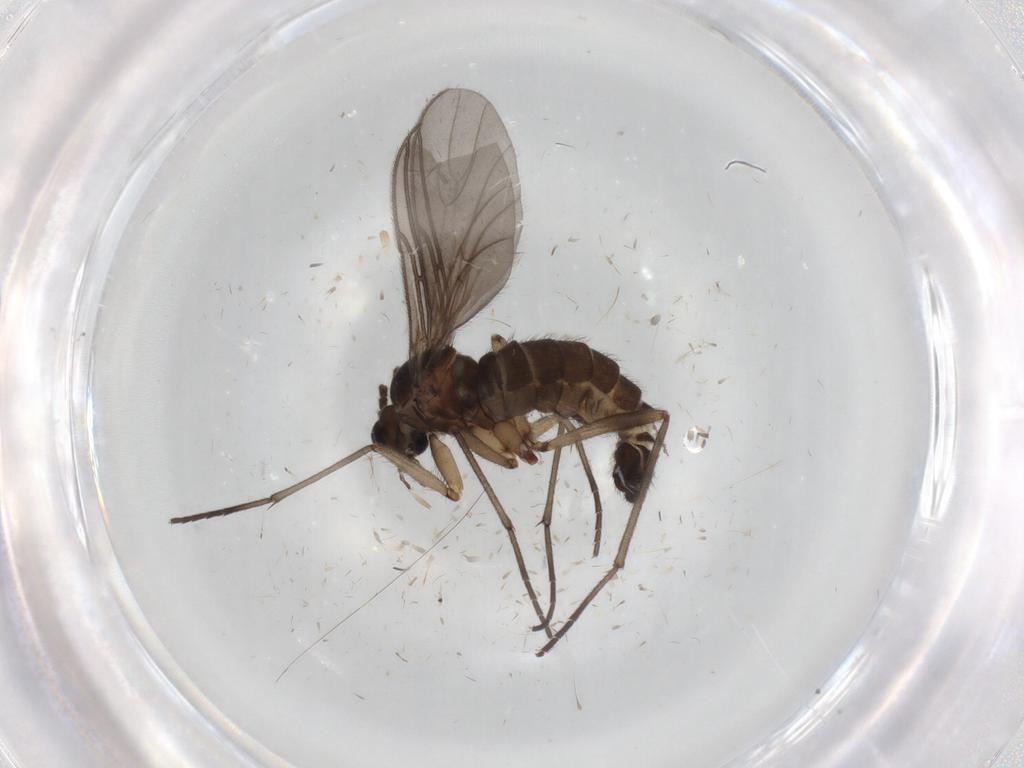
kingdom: Animalia
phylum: Arthropoda
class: Insecta
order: Diptera
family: Sciaridae
